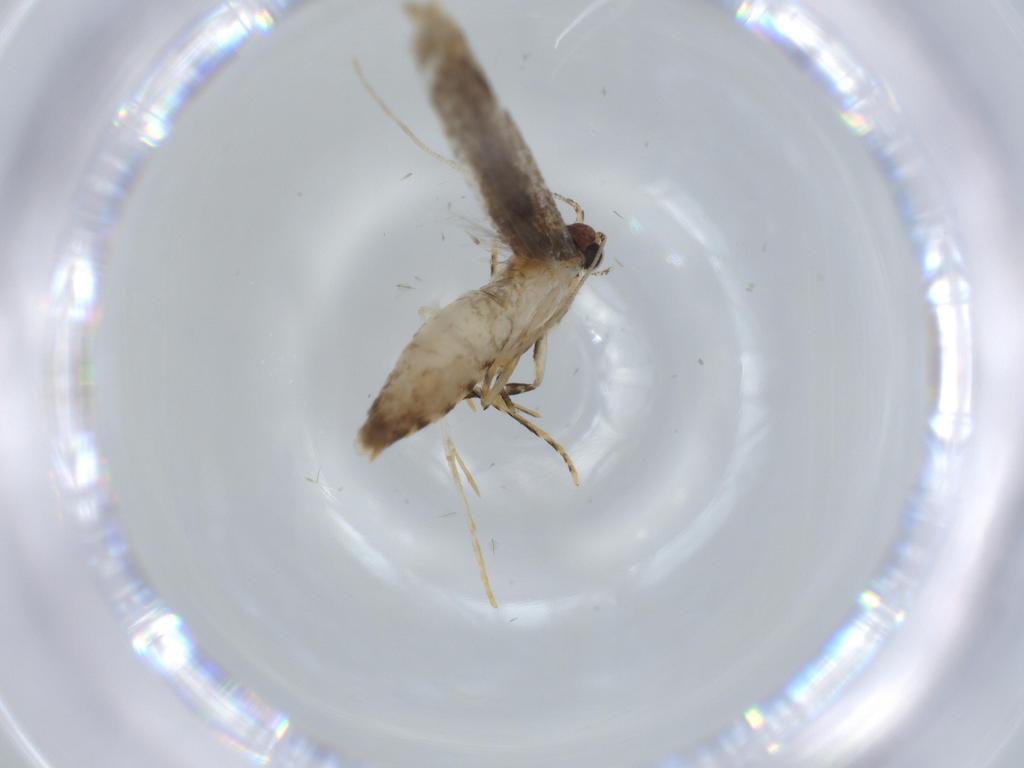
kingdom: Animalia
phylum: Arthropoda
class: Insecta
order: Lepidoptera
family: Tineidae
